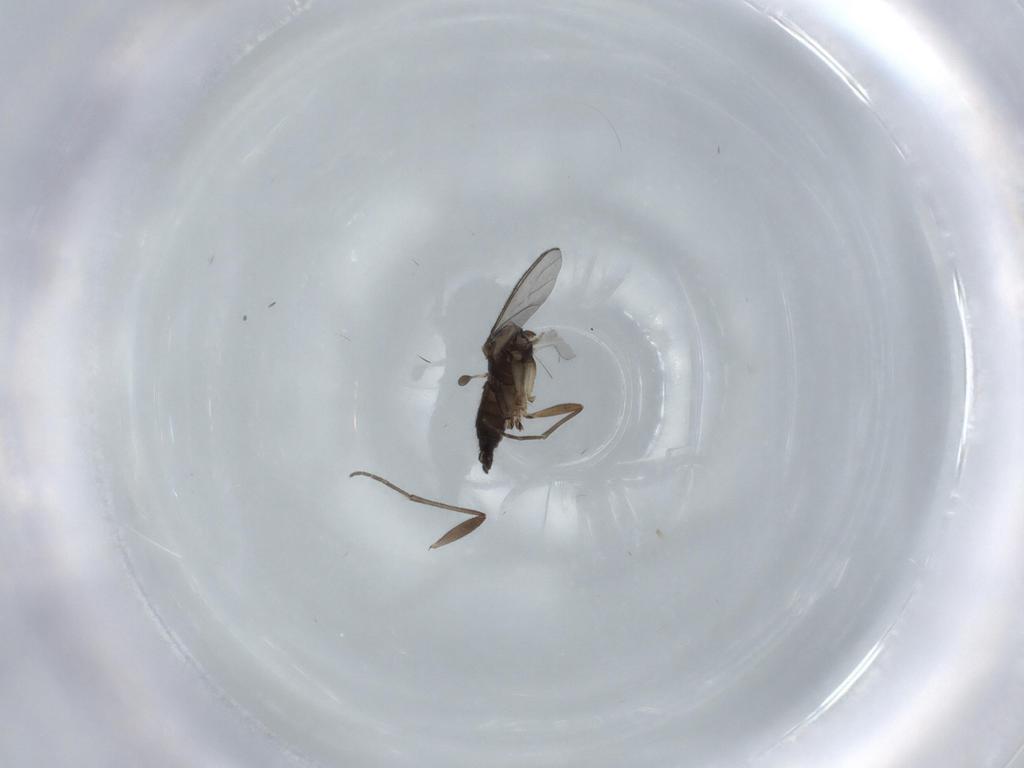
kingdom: Animalia
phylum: Arthropoda
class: Insecta
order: Diptera
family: Sciaridae
